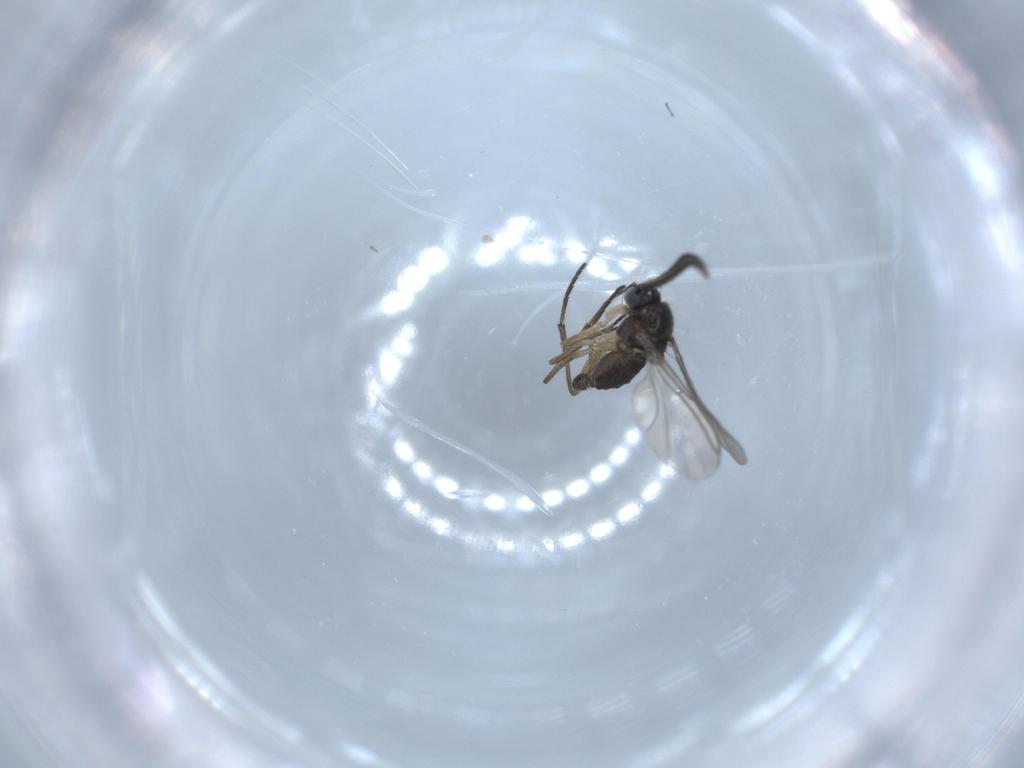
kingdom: Animalia
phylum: Arthropoda
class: Insecta
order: Diptera
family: Sciaridae
